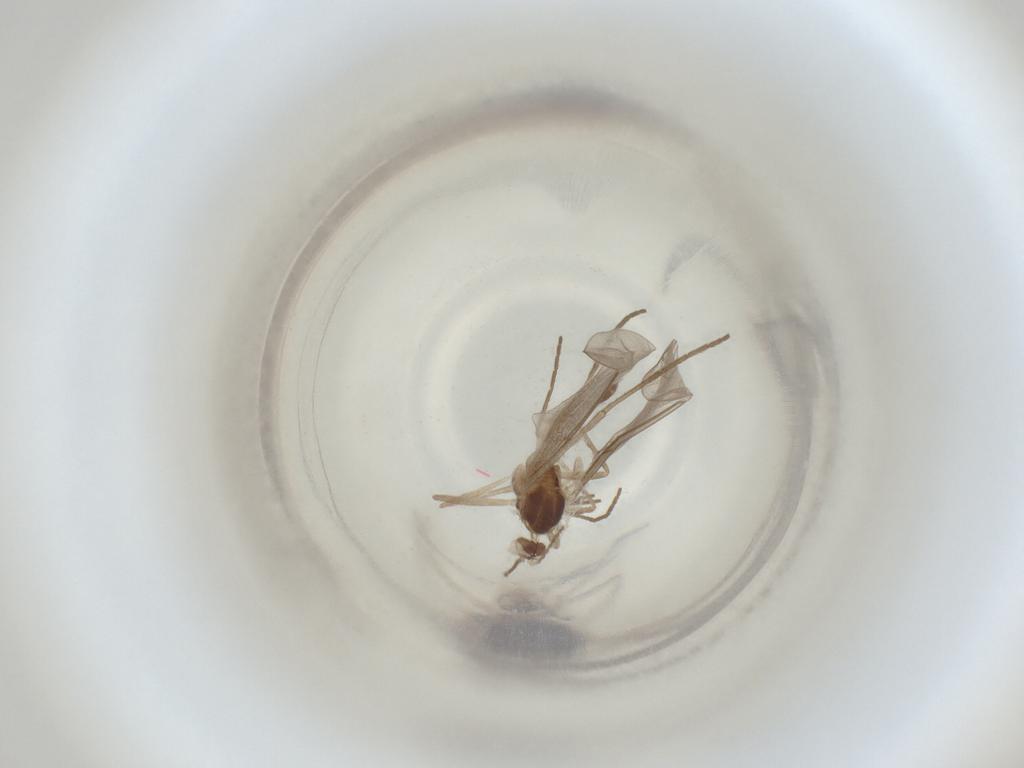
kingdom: Animalia
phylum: Arthropoda
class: Insecta
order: Diptera
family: Cecidomyiidae
